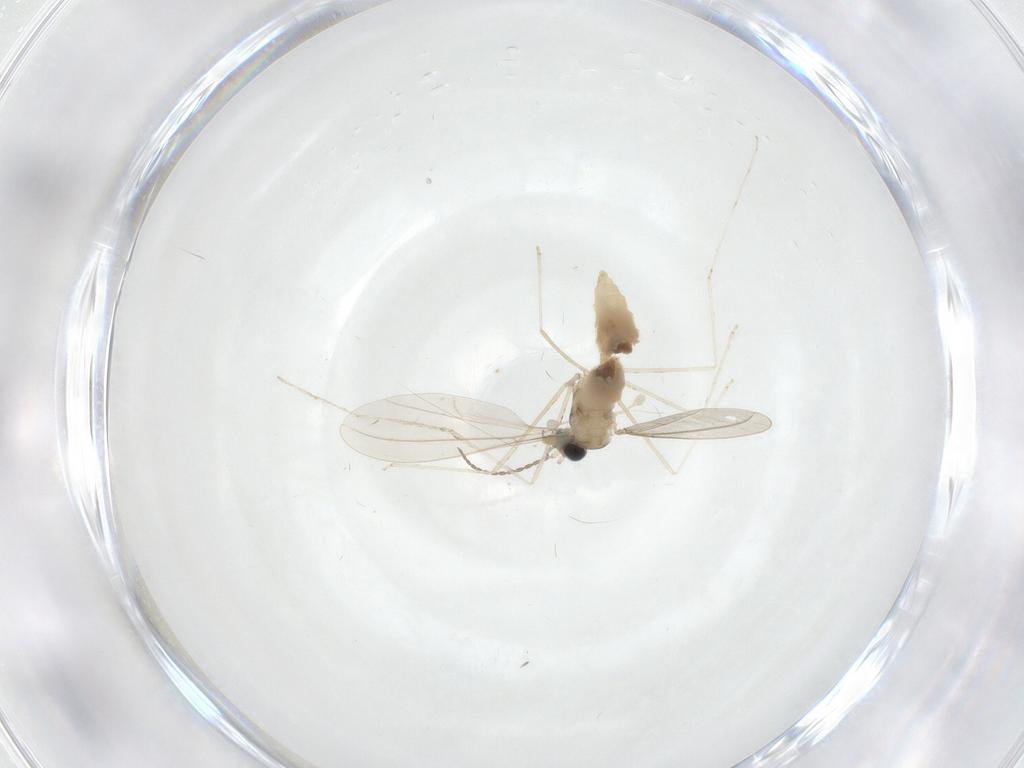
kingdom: Animalia
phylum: Arthropoda
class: Insecta
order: Diptera
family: Cecidomyiidae
